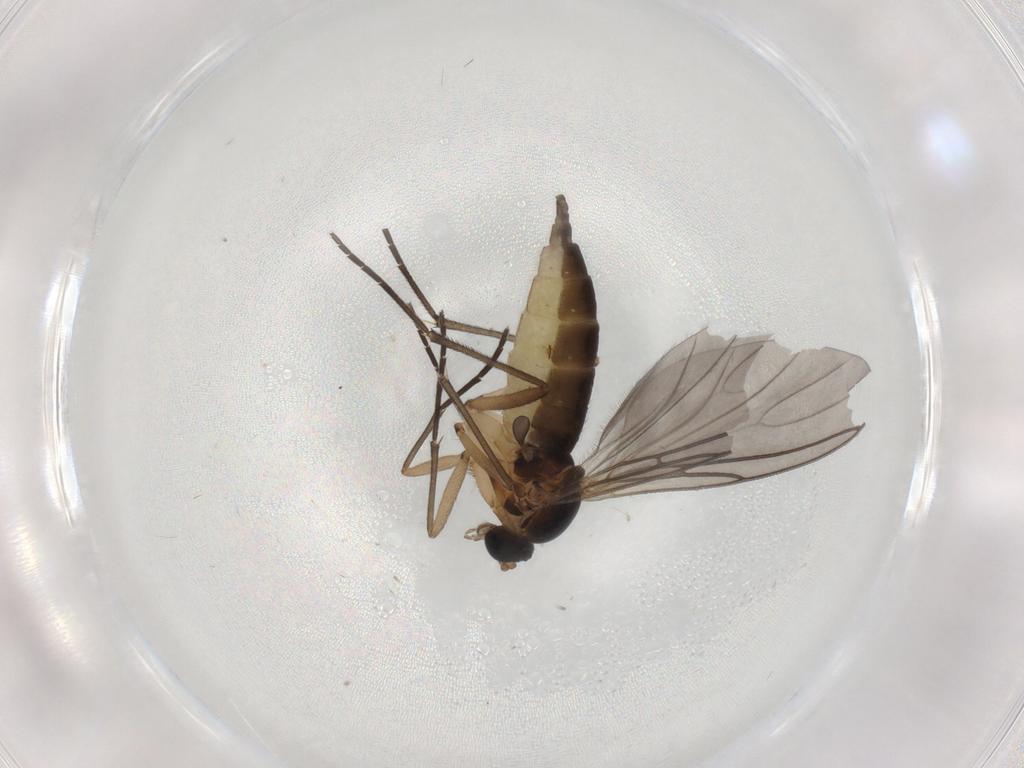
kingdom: Animalia
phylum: Arthropoda
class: Insecta
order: Diptera
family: Sciaridae
